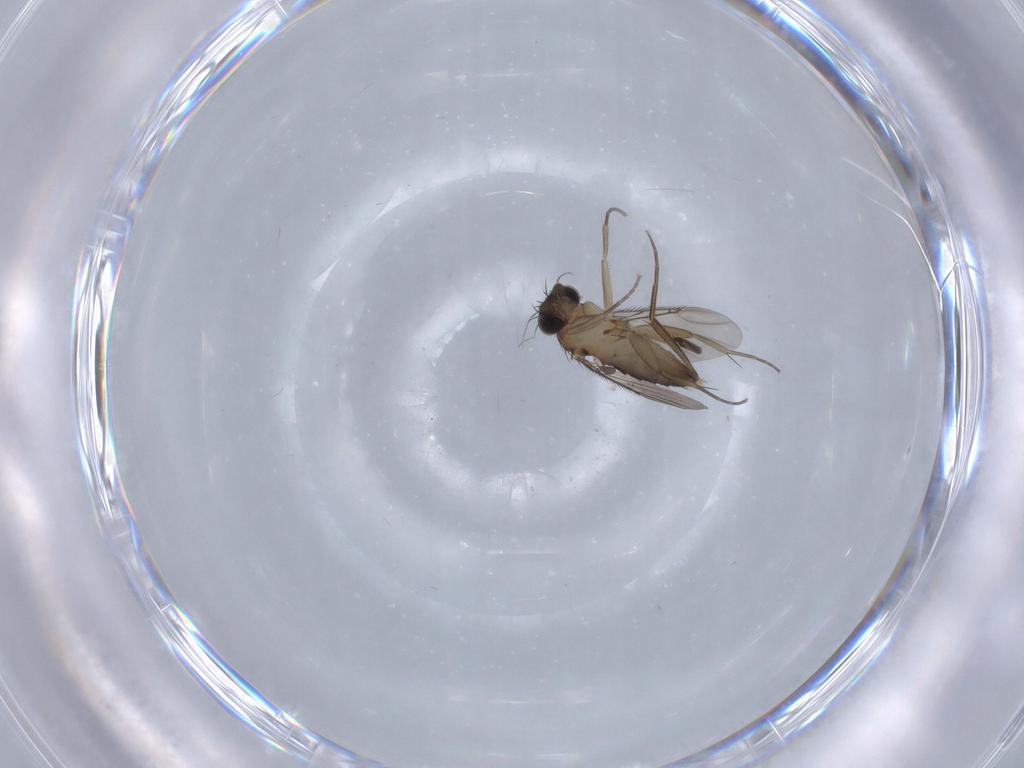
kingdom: Animalia
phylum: Arthropoda
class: Insecta
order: Diptera
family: Phoridae
